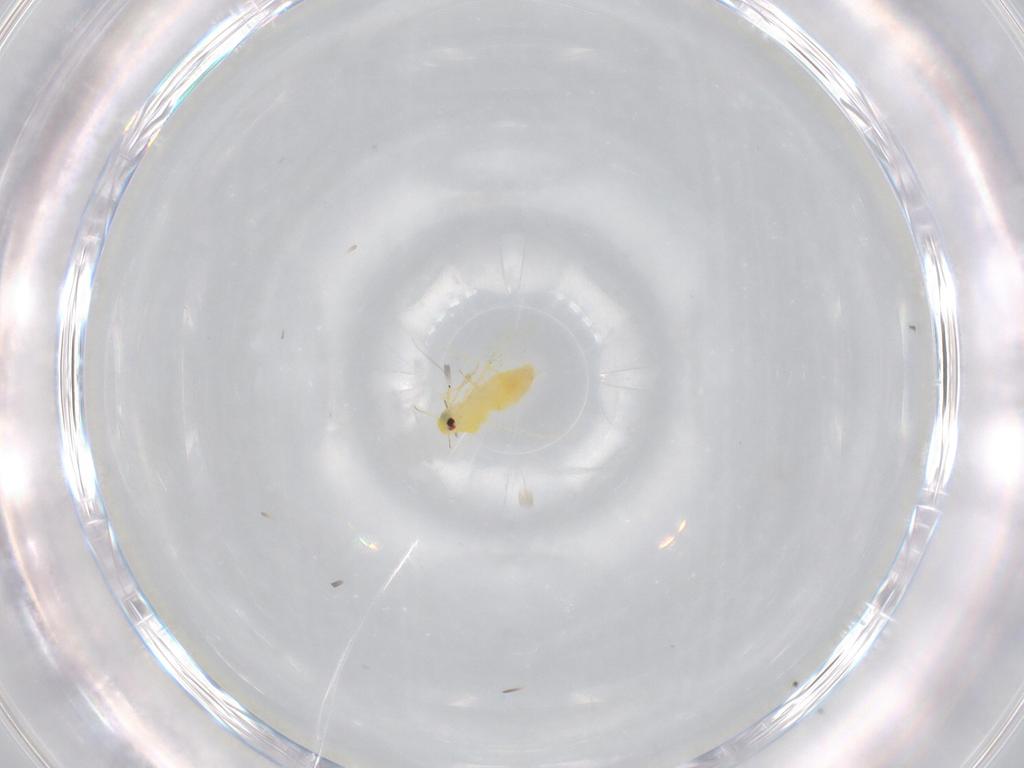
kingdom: Animalia
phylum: Arthropoda
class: Insecta
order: Hemiptera
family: Aleyrodidae
